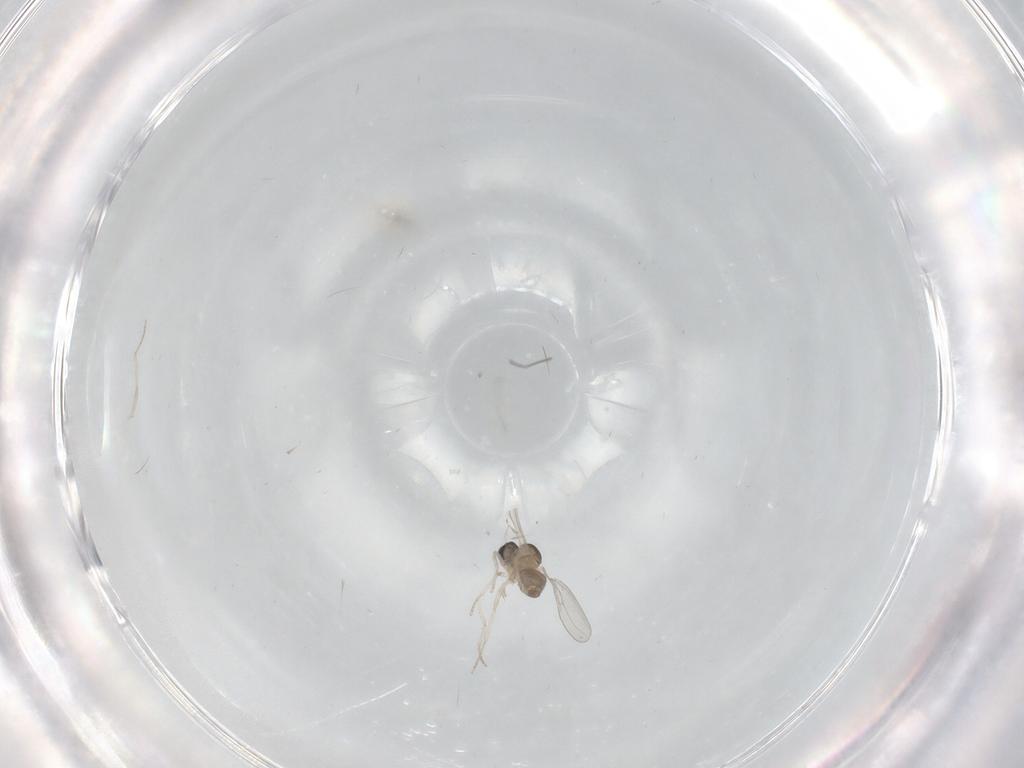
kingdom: Animalia
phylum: Arthropoda
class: Insecta
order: Diptera
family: Cecidomyiidae
